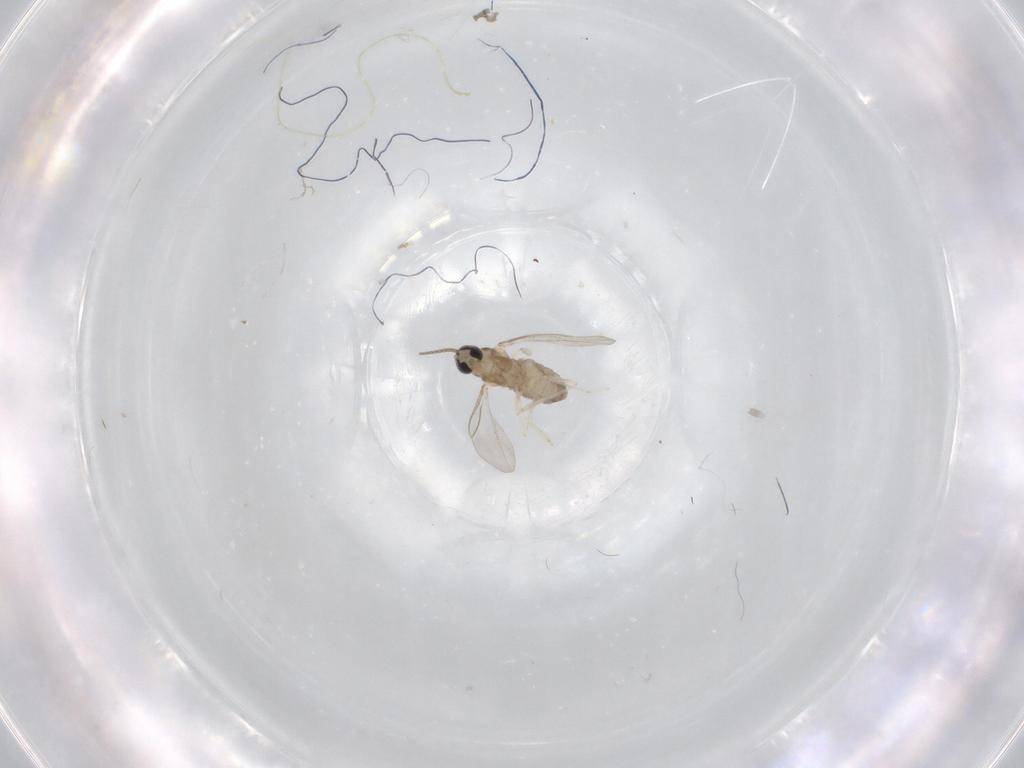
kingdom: Animalia
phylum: Arthropoda
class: Insecta
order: Diptera
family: Cecidomyiidae
